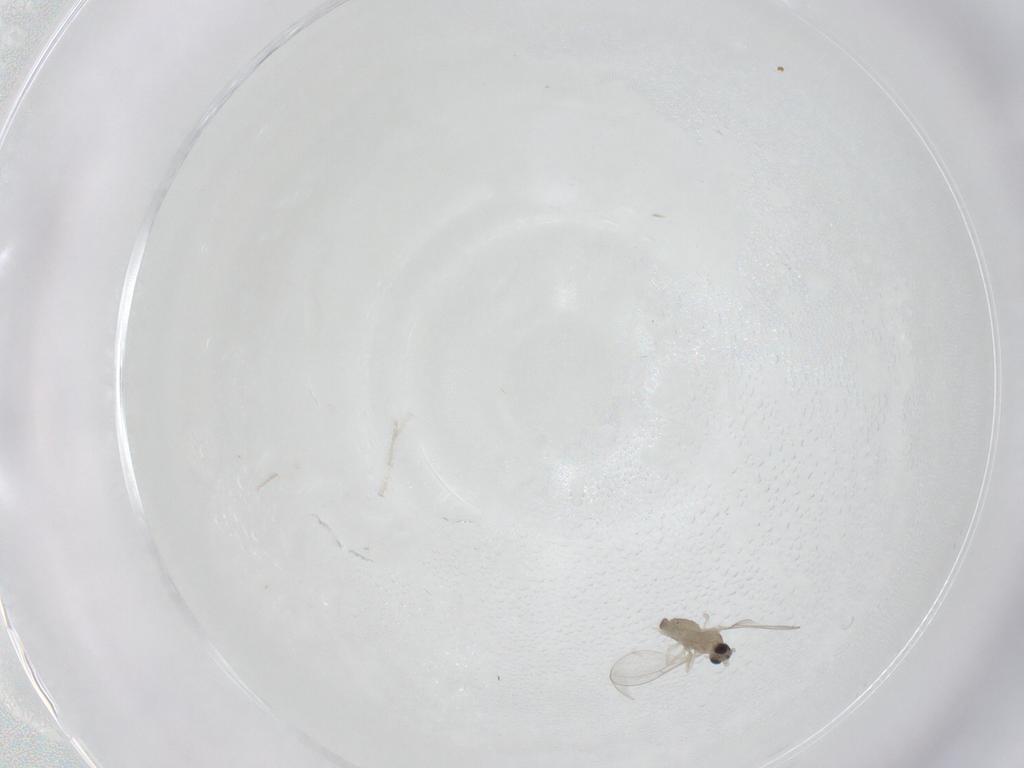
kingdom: Animalia
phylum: Arthropoda
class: Insecta
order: Diptera
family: Cecidomyiidae
